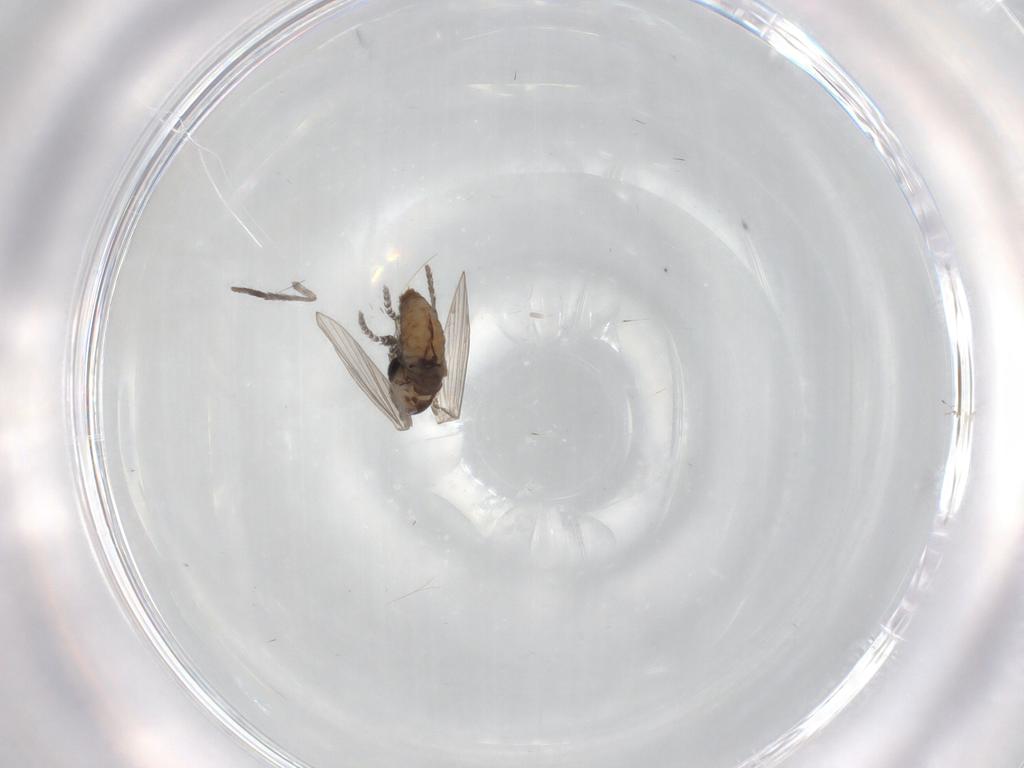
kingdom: Animalia
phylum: Arthropoda
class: Insecta
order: Diptera
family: Psychodidae
